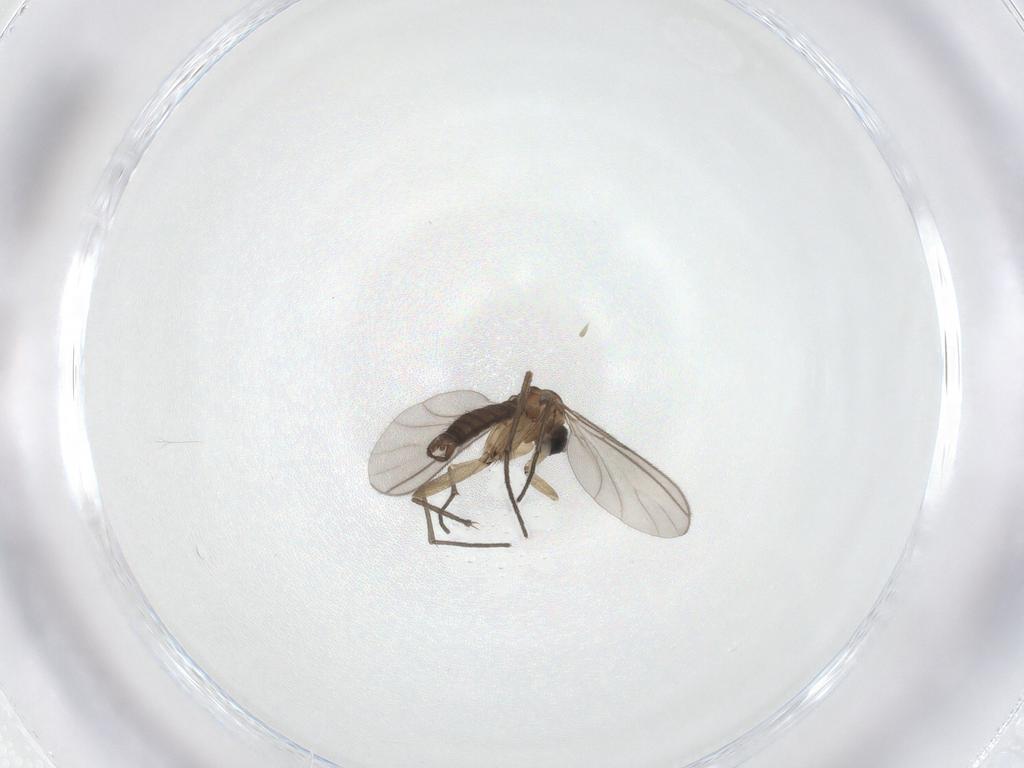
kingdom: Animalia
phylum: Arthropoda
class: Insecta
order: Diptera
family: Sciaridae
